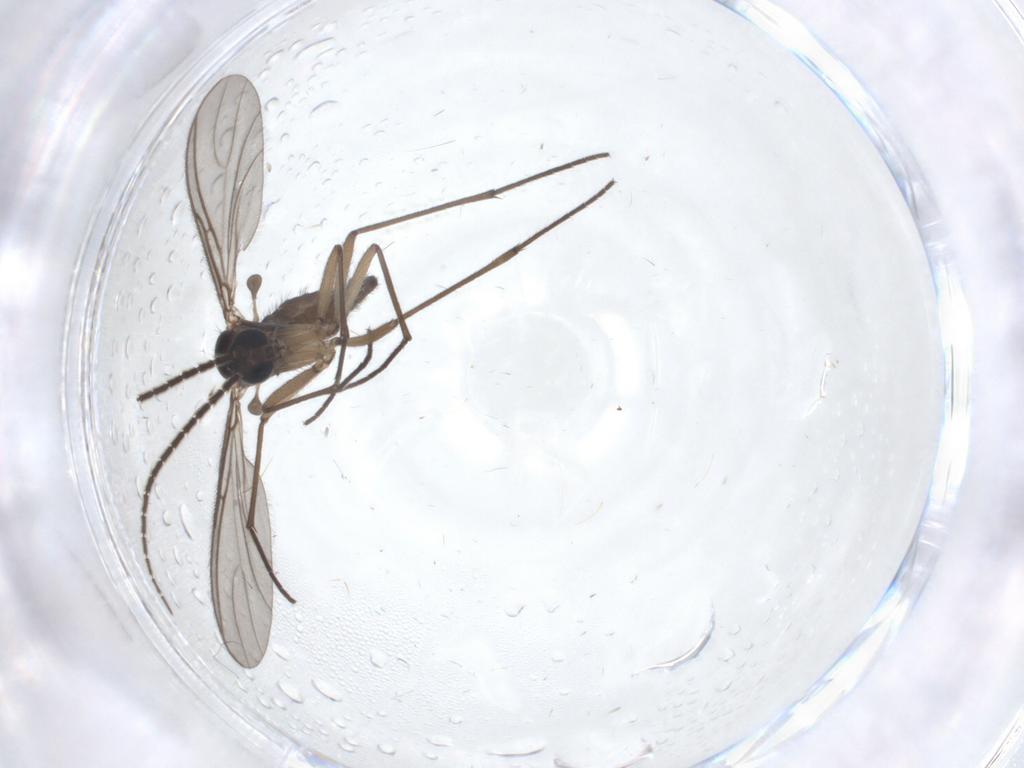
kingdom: Animalia
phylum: Arthropoda
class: Insecta
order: Diptera
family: Sciaridae
